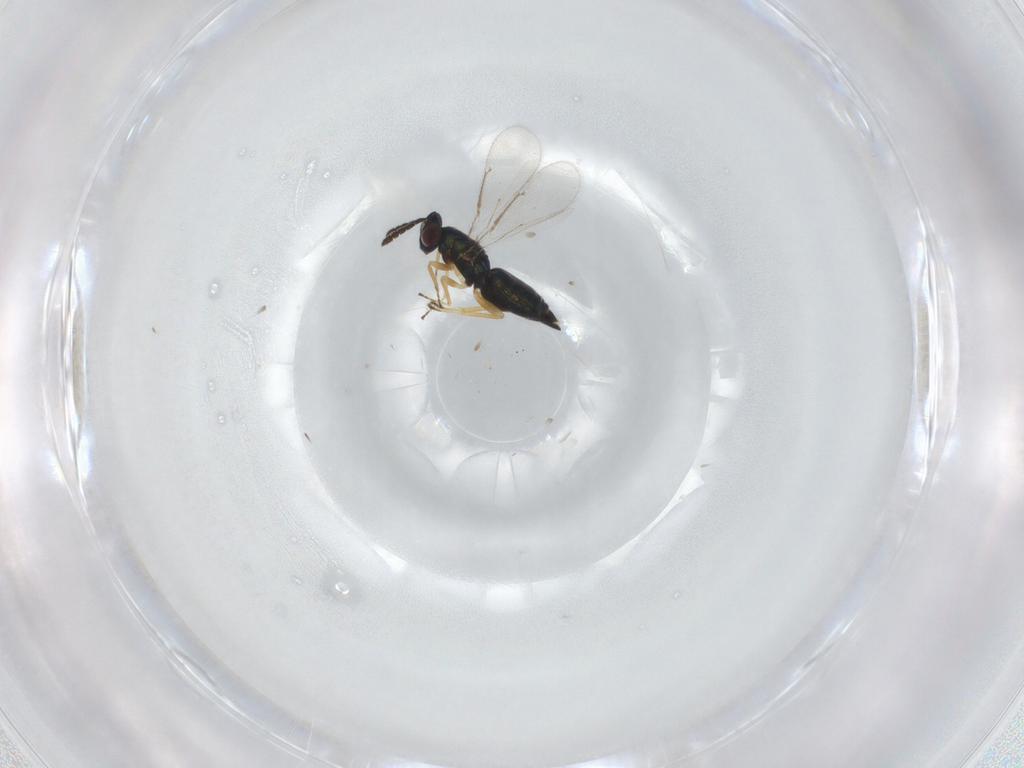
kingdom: Animalia
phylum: Arthropoda
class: Insecta
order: Hymenoptera
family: Eulophidae
